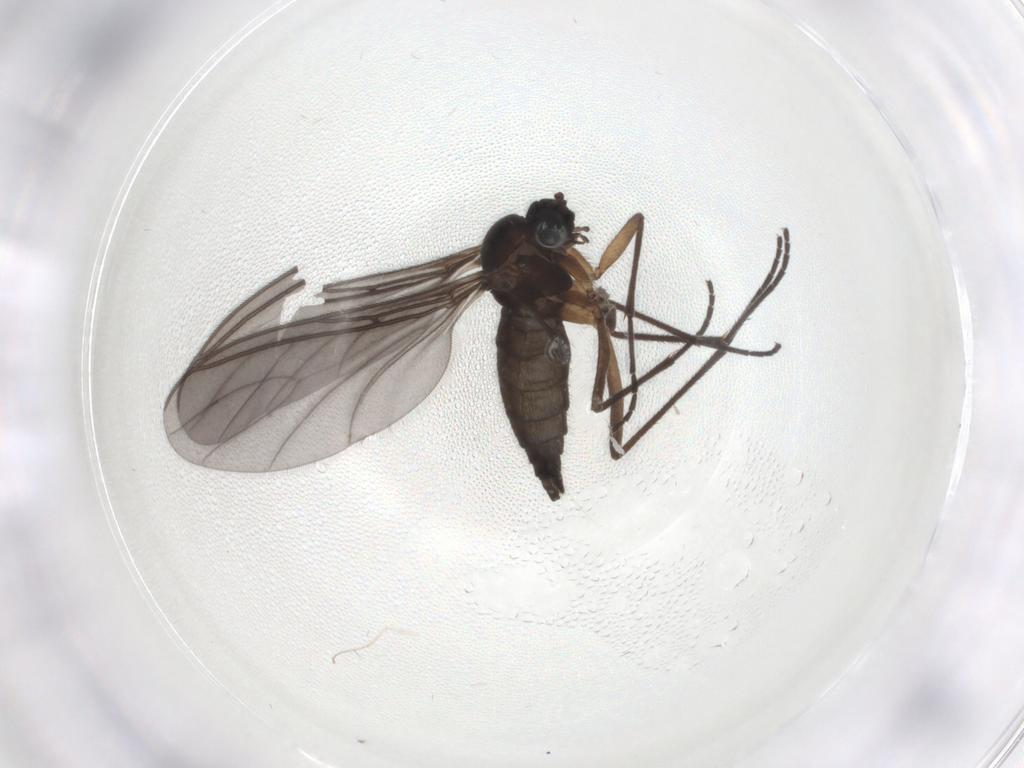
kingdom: Animalia
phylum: Arthropoda
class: Insecta
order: Diptera
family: Sciaridae
